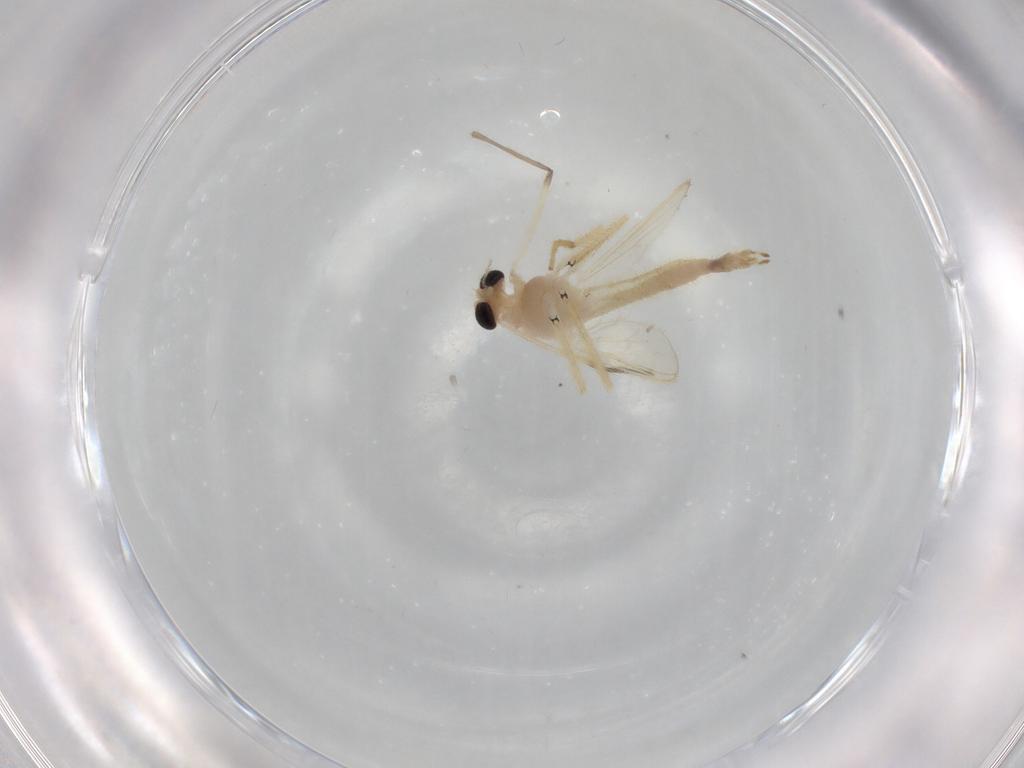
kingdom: Animalia
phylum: Arthropoda
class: Insecta
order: Diptera
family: Chironomidae
